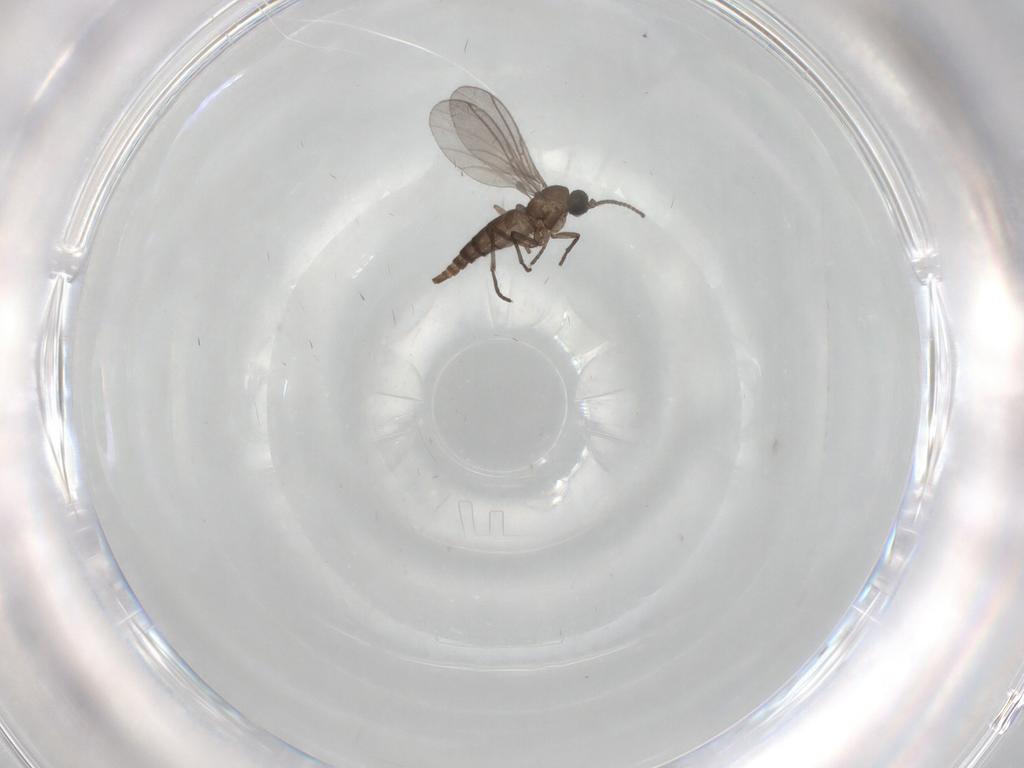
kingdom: Animalia
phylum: Arthropoda
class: Insecta
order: Diptera
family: Sciaridae
